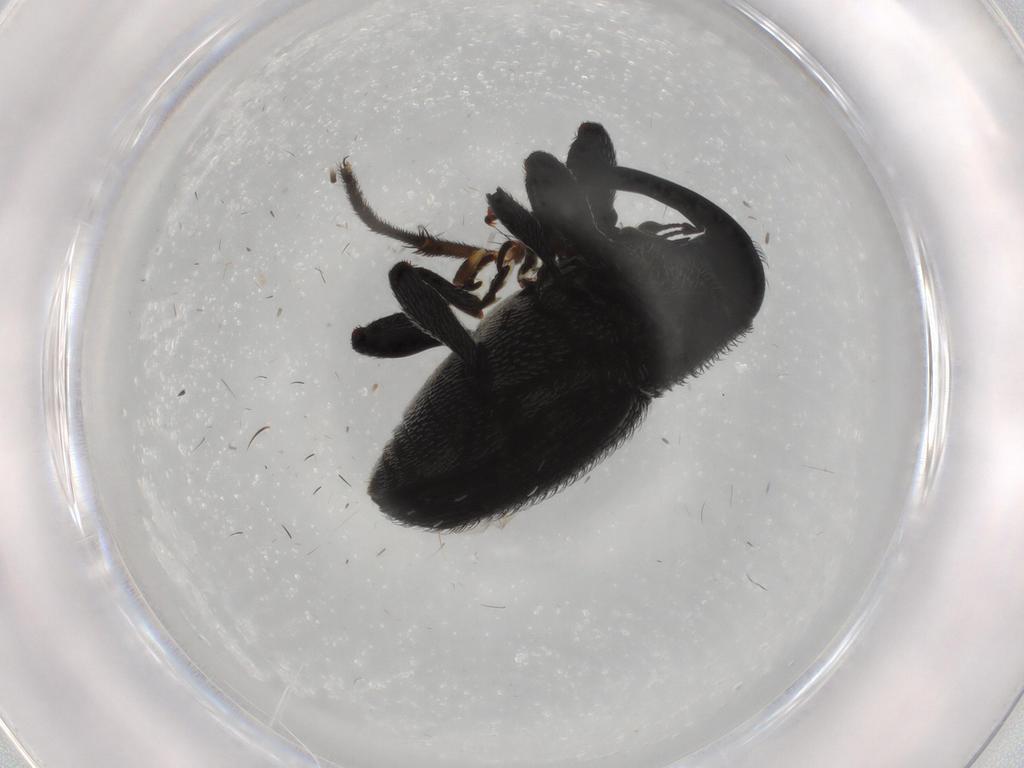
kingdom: Animalia
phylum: Arthropoda
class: Insecta
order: Coleoptera
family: Curculionidae
